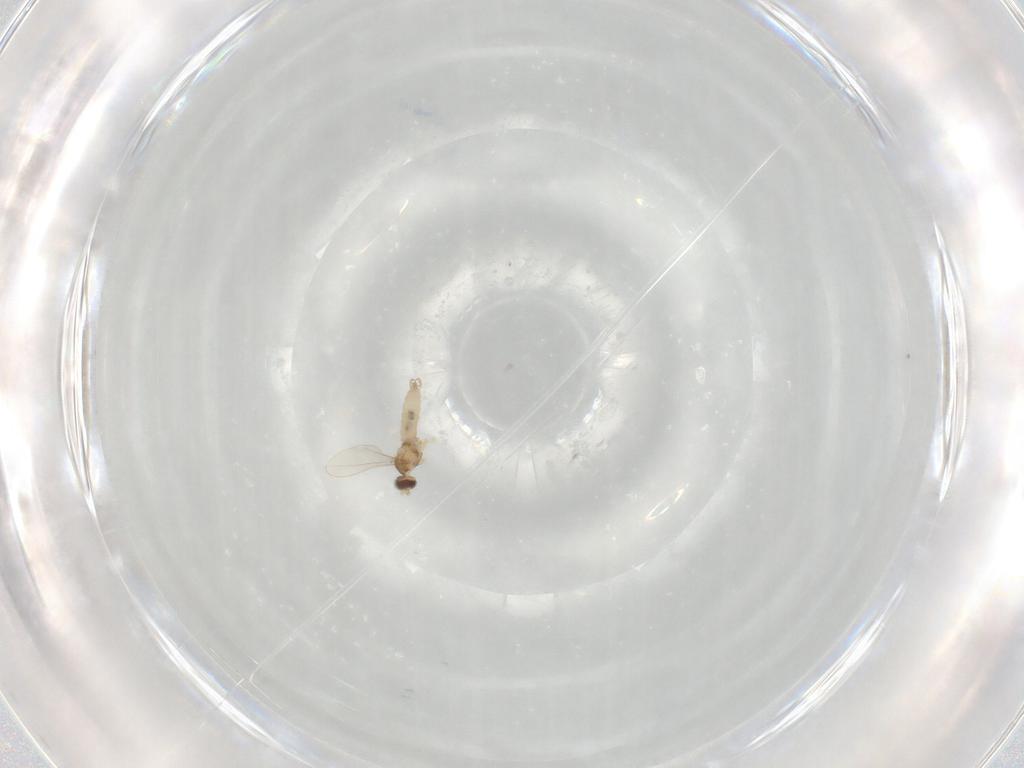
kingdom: Animalia
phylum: Arthropoda
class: Insecta
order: Diptera
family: Cecidomyiidae
